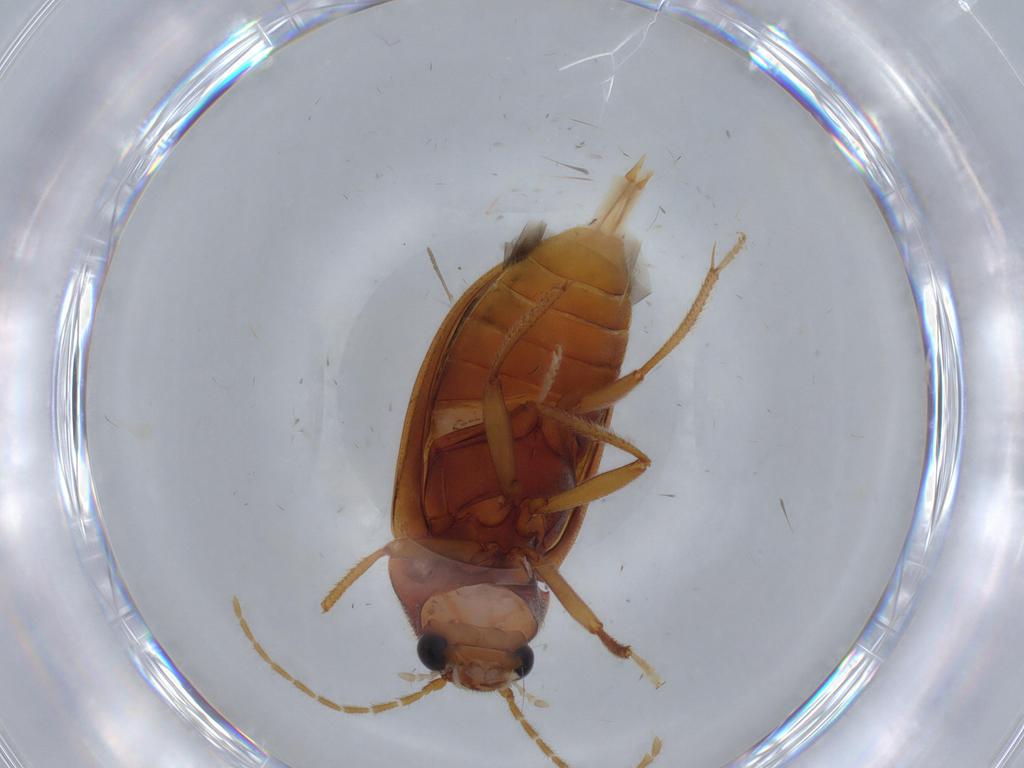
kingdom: Animalia
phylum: Arthropoda
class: Insecta
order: Coleoptera
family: Ptilodactylidae
